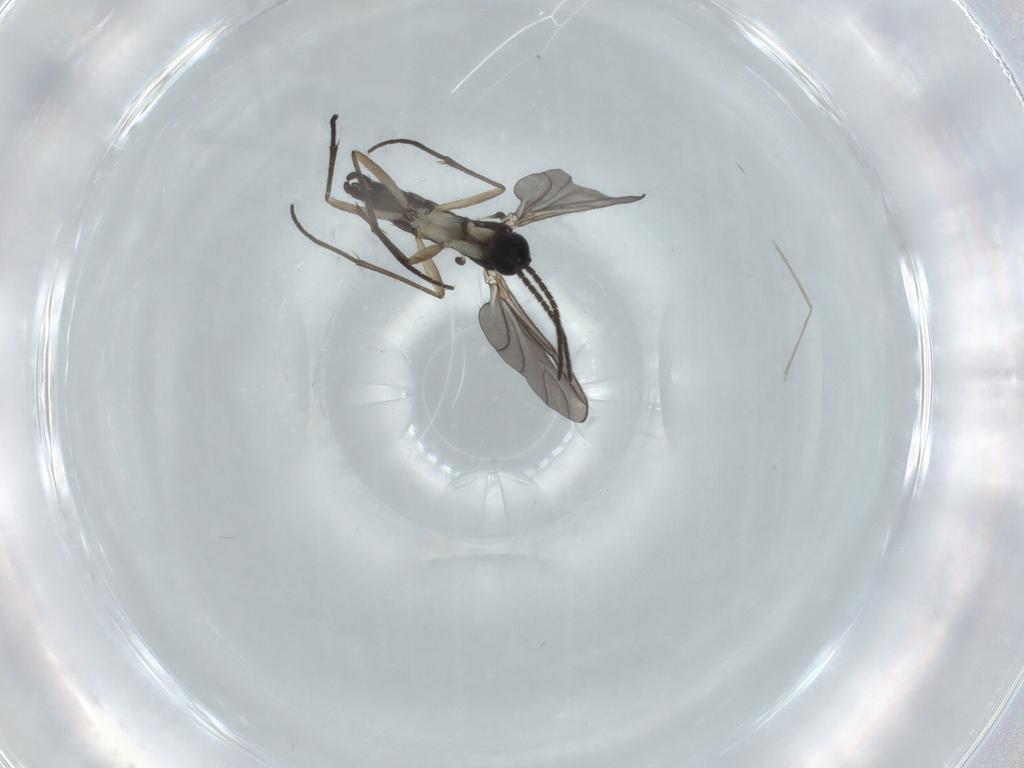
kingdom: Animalia
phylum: Arthropoda
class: Insecta
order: Diptera
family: Sciaridae
